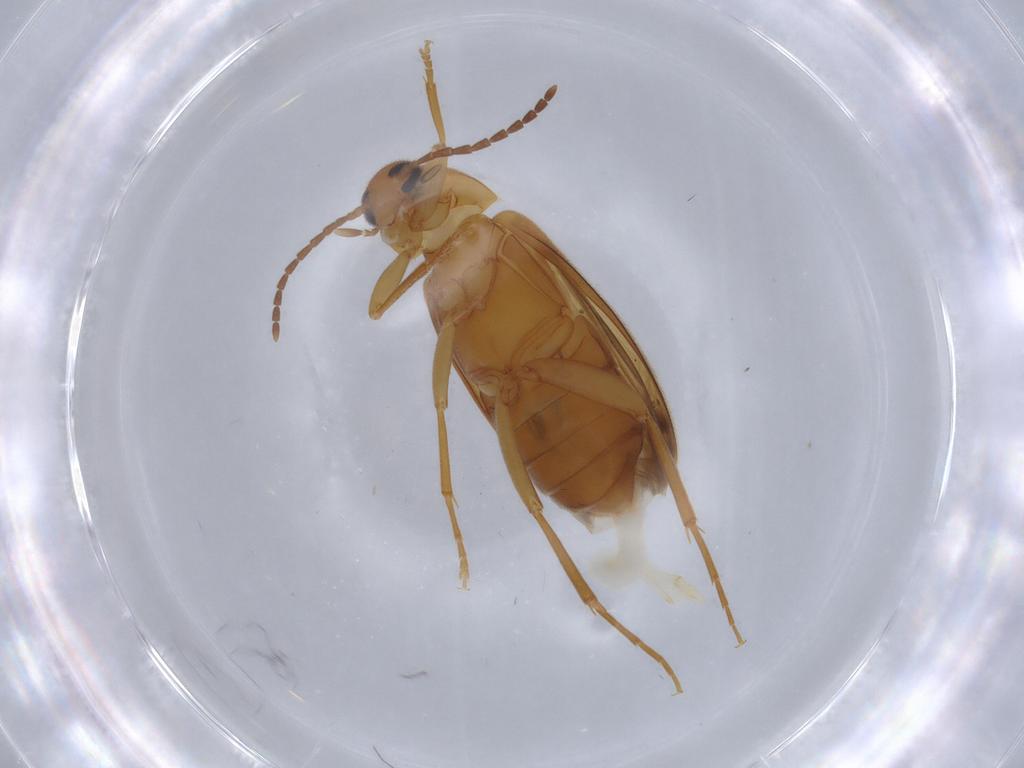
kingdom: Animalia
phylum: Arthropoda
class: Insecta
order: Coleoptera
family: Scraptiidae
